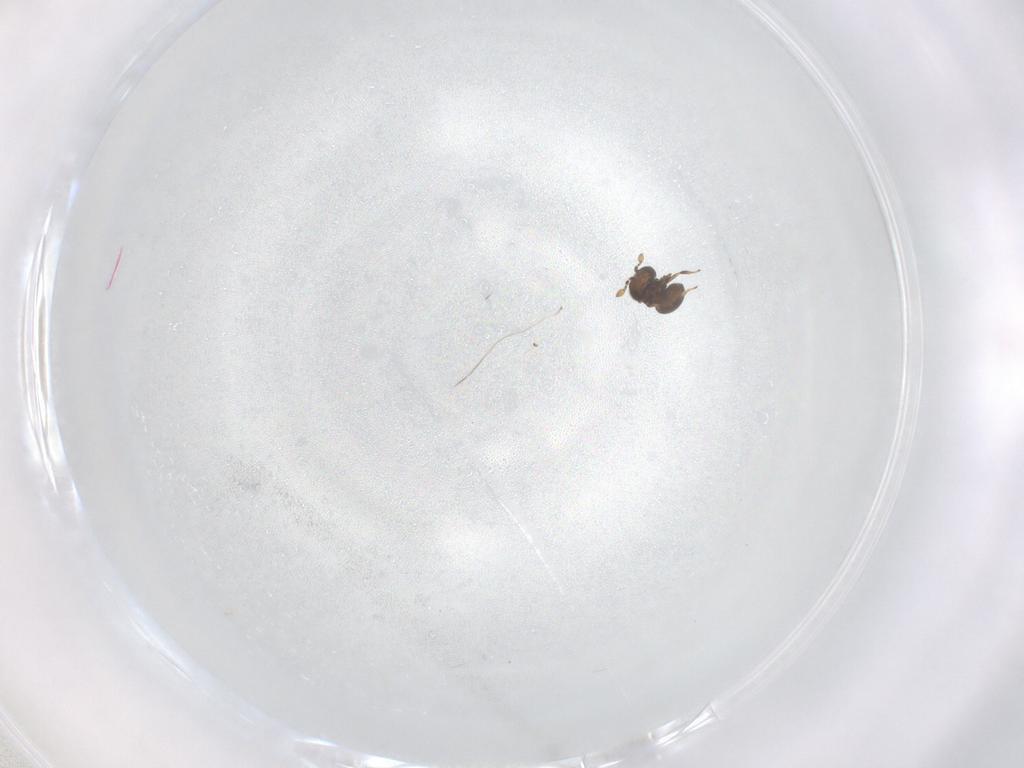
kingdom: Animalia
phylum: Arthropoda
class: Insecta
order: Hymenoptera
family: Scelionidae
